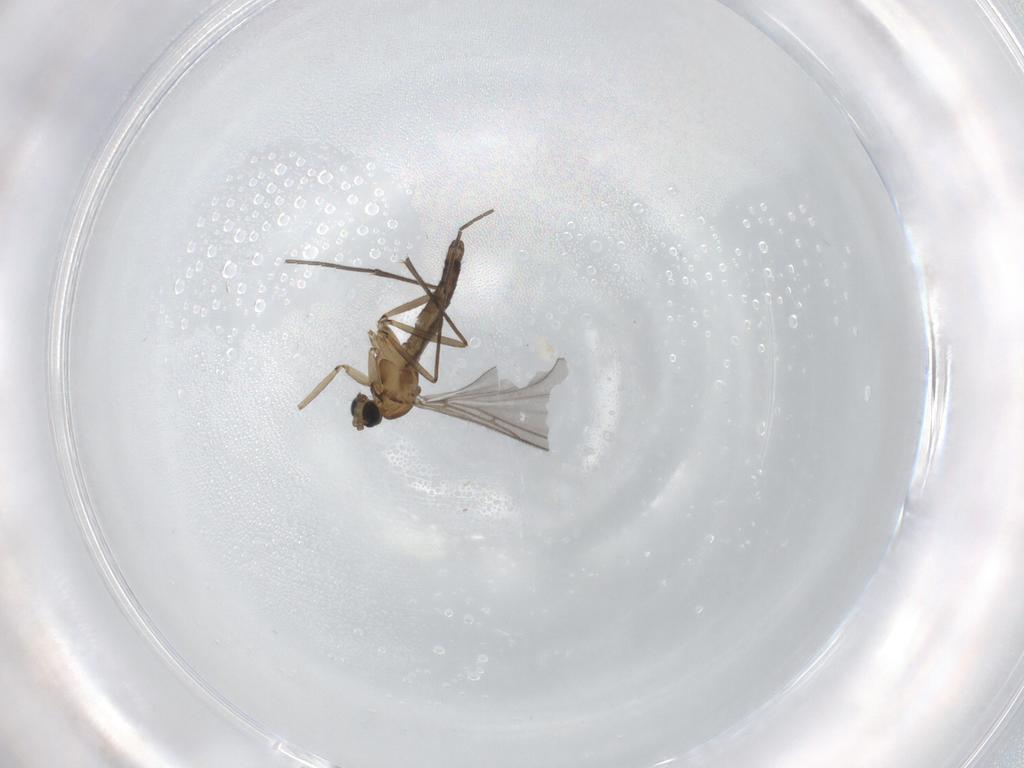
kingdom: Animalia
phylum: Arthropoda
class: Insecta
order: Diptera
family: Sciaridae
